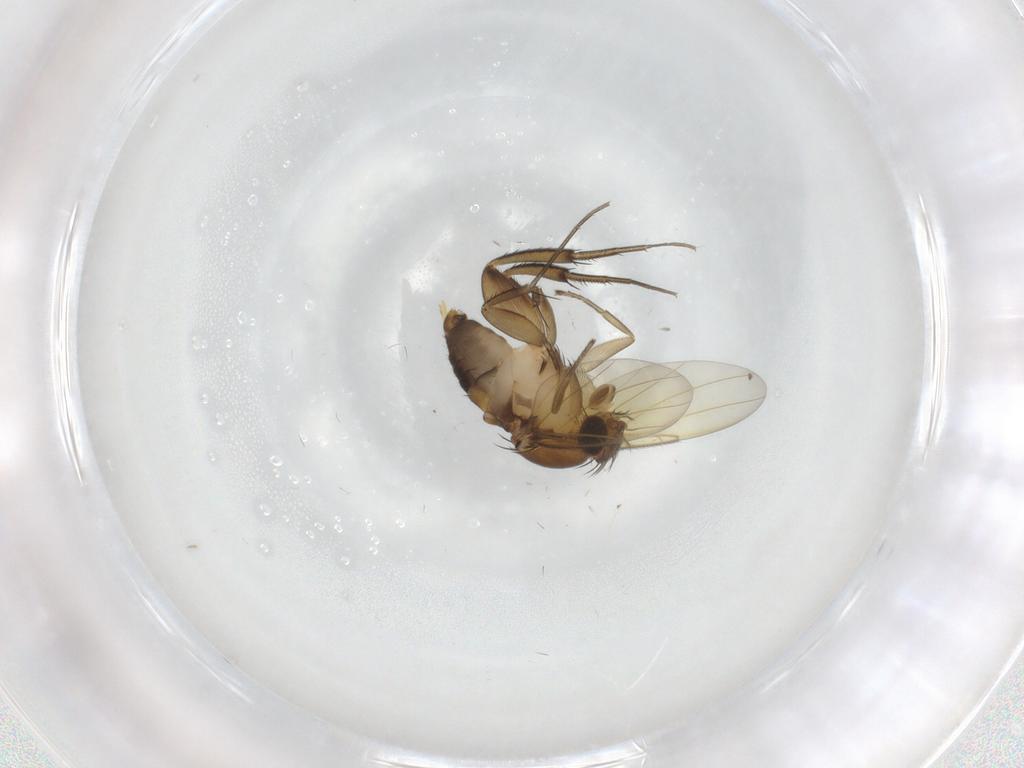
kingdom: Animalia
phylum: Arthropoda
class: Insecta
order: Diptera
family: Phoridae
